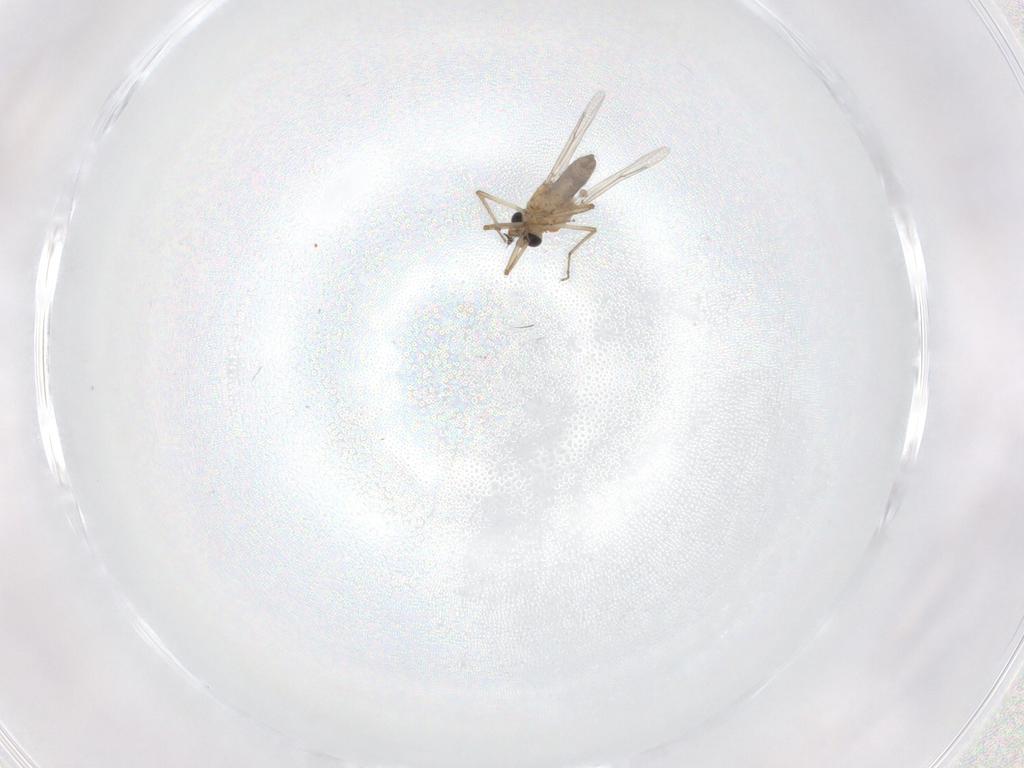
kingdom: Animalia
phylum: Arthropoda
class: Insecta
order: Diptera
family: Ceratopogonidae
